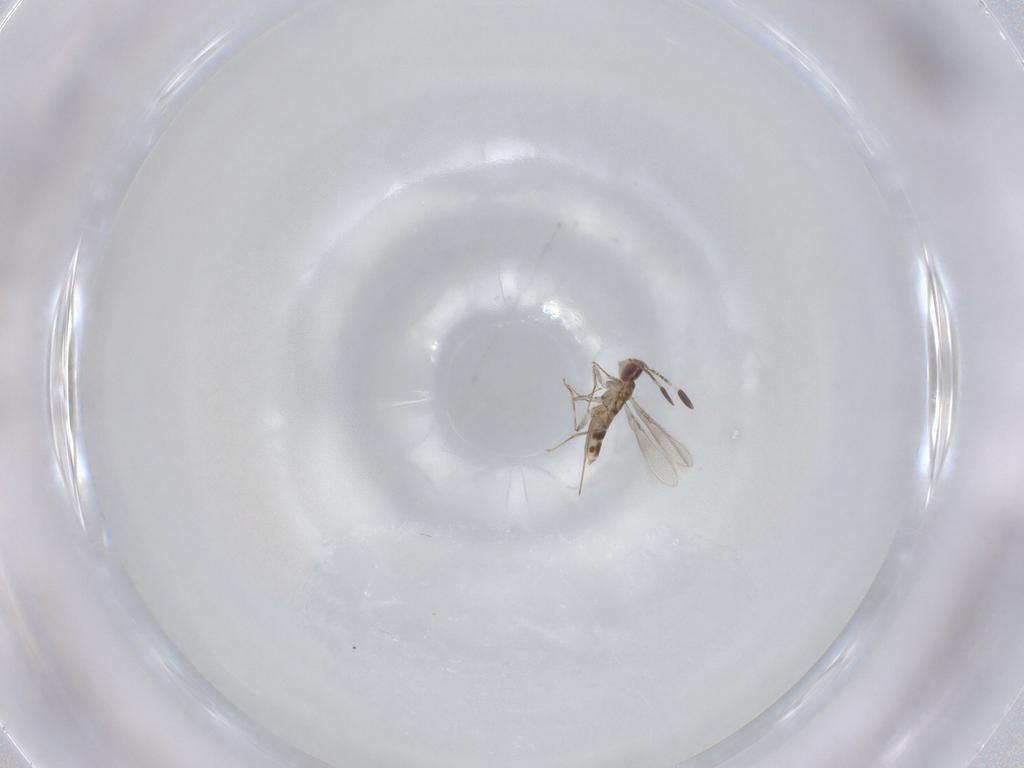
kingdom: Animalia
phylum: Arthropoda
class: Insecta
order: Hymenoptera
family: Mymaridae
